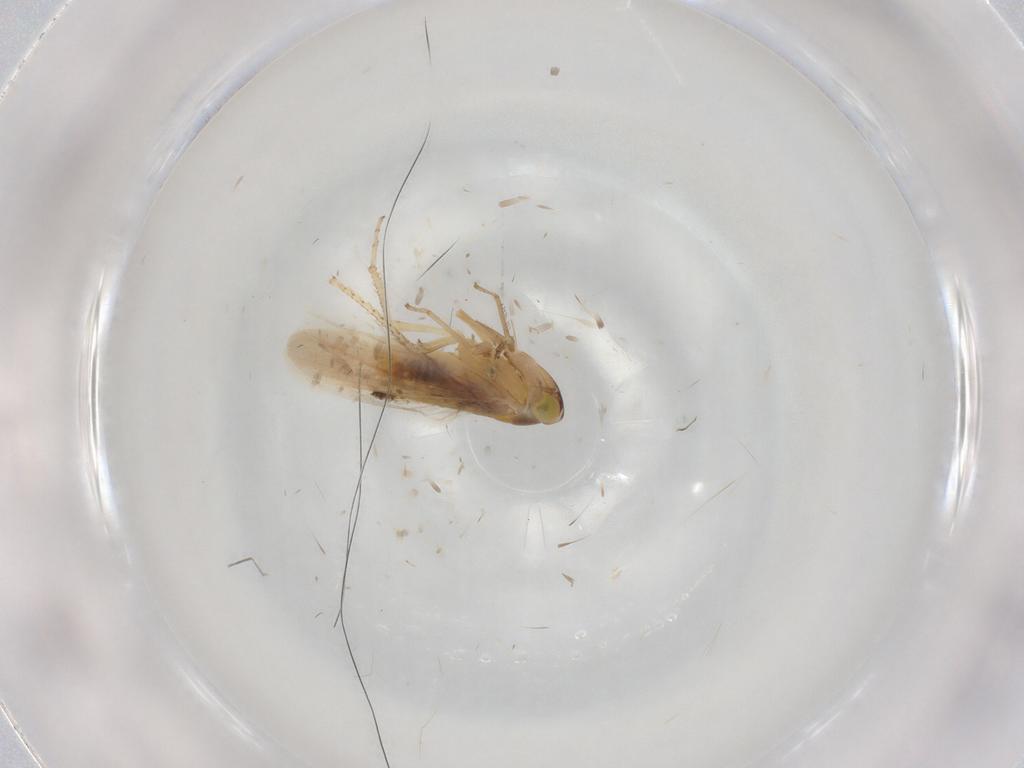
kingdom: Animalia
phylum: Arthropoda
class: Insecta
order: Hemiptera
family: Cicadellidae
